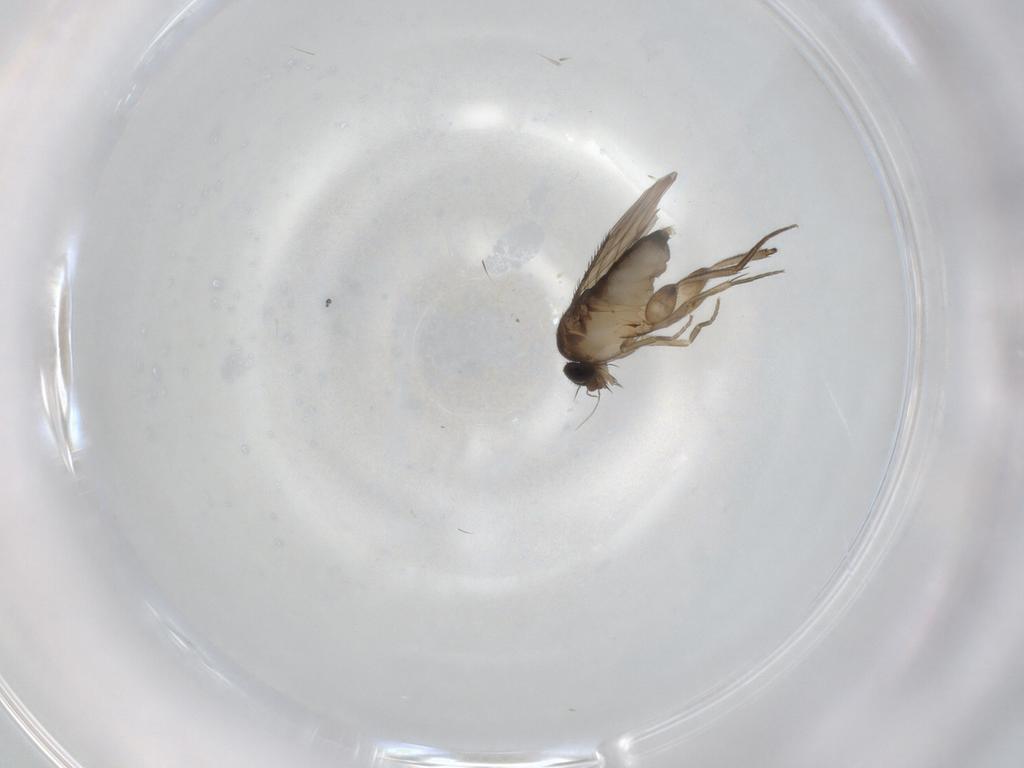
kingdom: Animalia
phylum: Arthropoda
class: Insecta
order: Diptera
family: Phoridae
